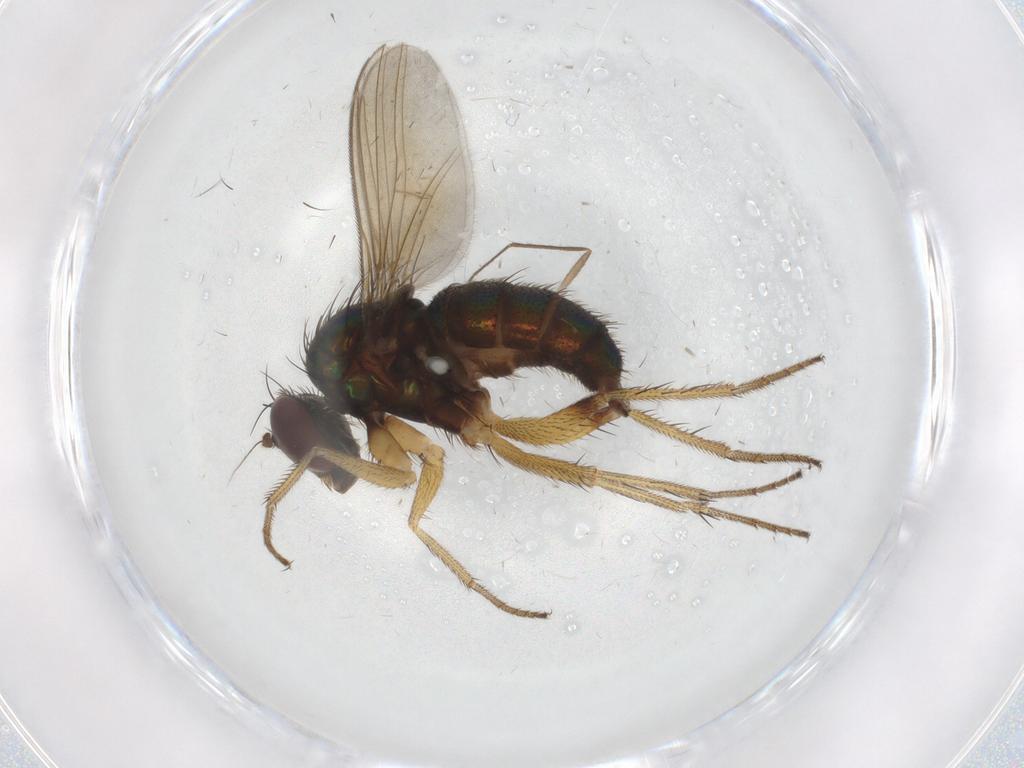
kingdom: Animalia
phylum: Arthropoda
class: Insecta
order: Diptera
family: Dolichopodidae
